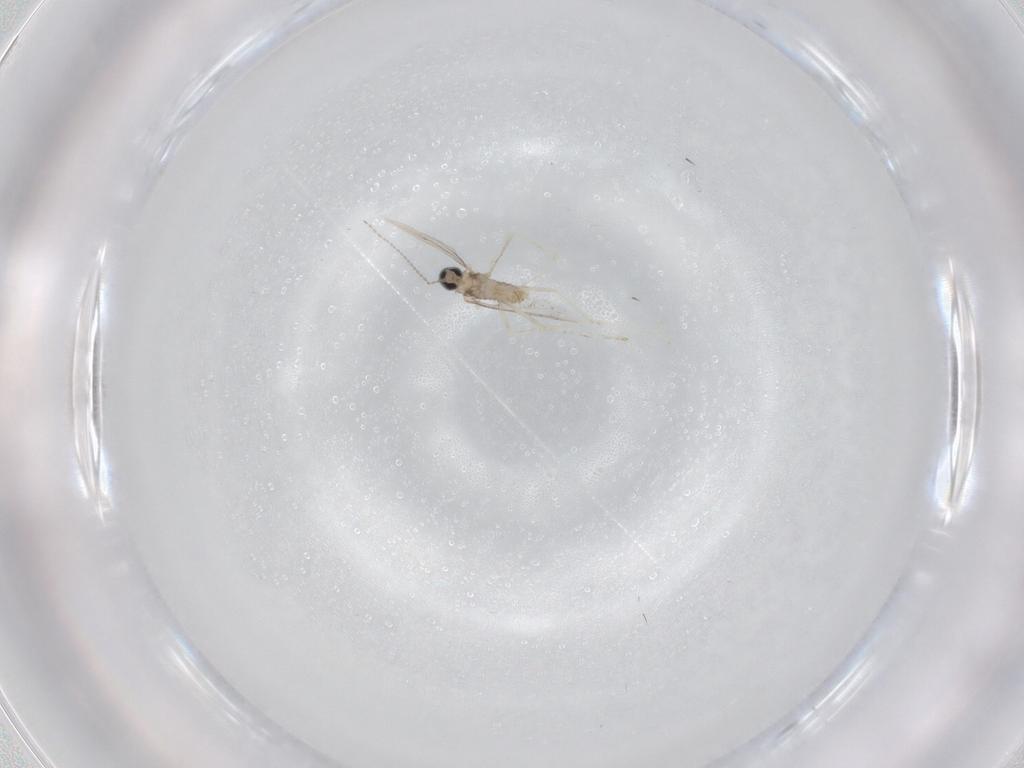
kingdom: Animalia
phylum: Arthropoda
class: Insecta
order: Diptera
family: Cecidomyiidae
